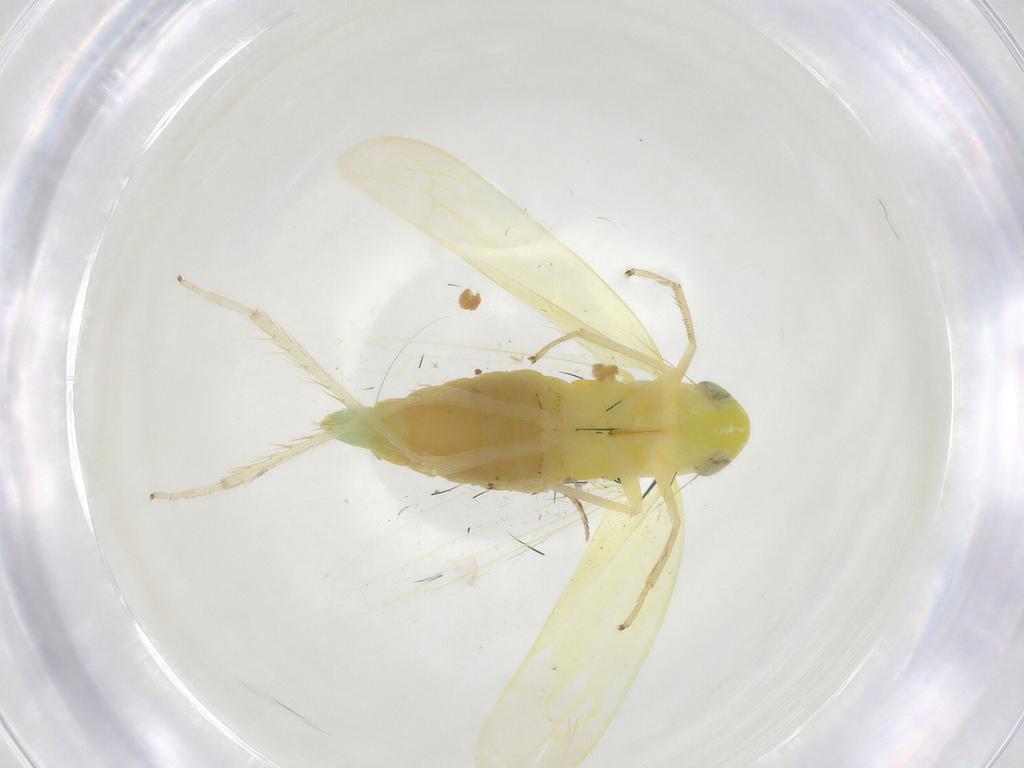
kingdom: Animalia
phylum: Arthropoda
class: Insecta
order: Hemiptera
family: Cicadellidae
